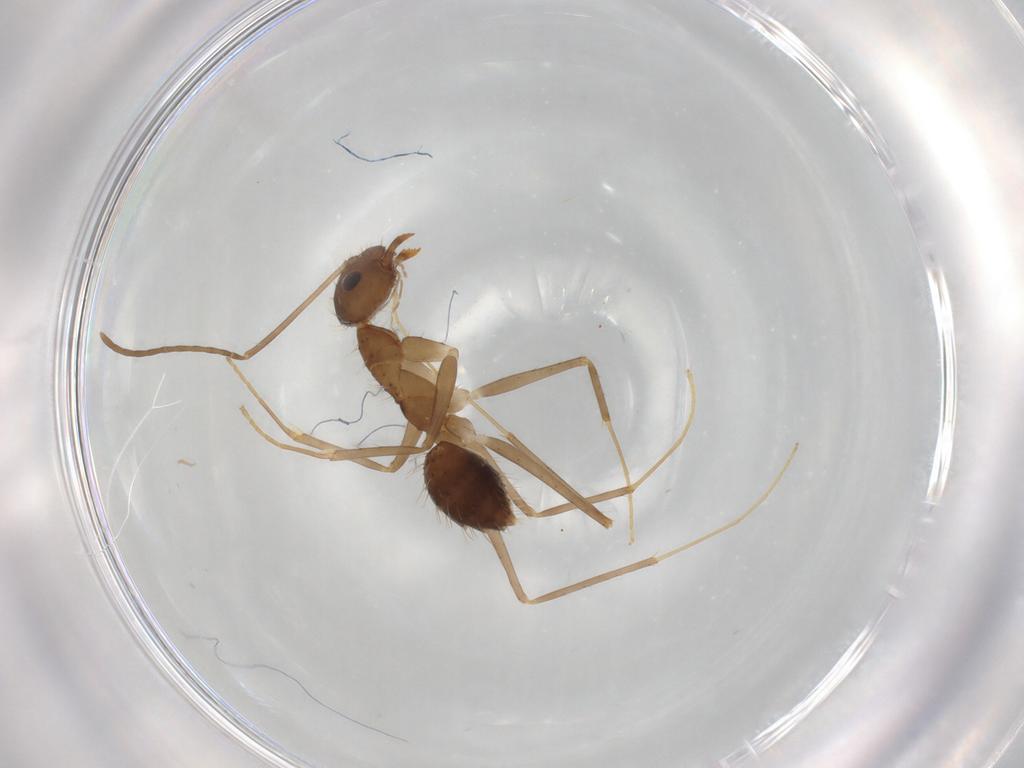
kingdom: Animalia
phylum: Arthropoda
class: Insecta
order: Hymenoptera
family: Formicidae
